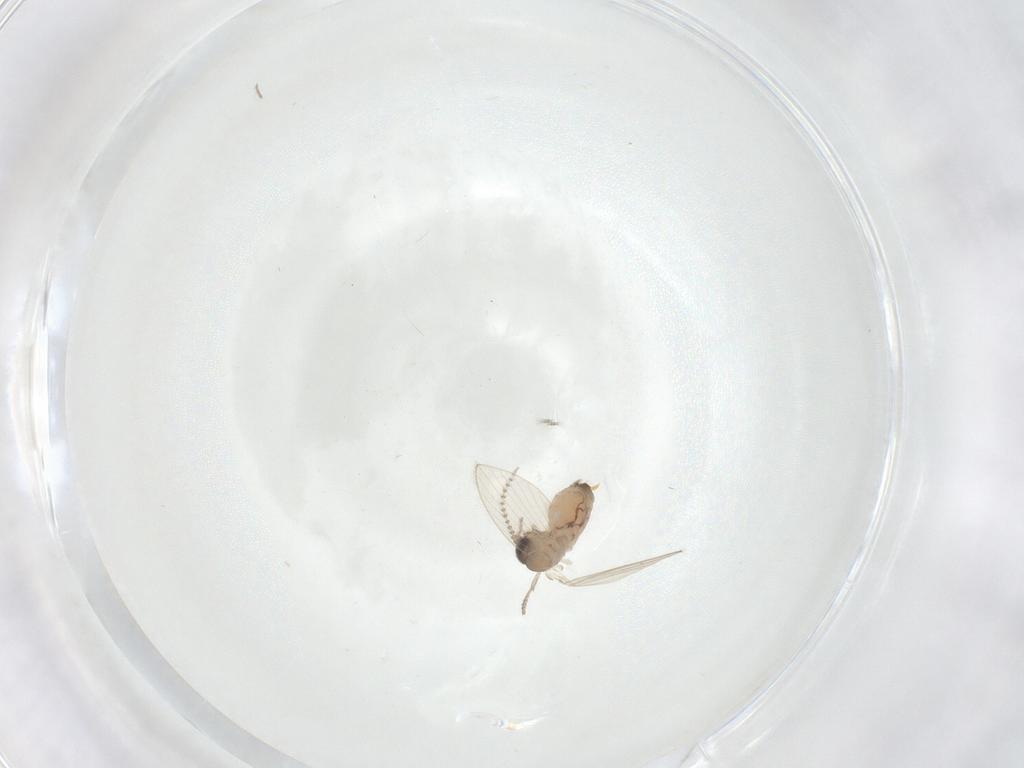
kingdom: Animalia
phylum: Arthropoda
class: Insecta
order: Diptera
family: Psychodidae
